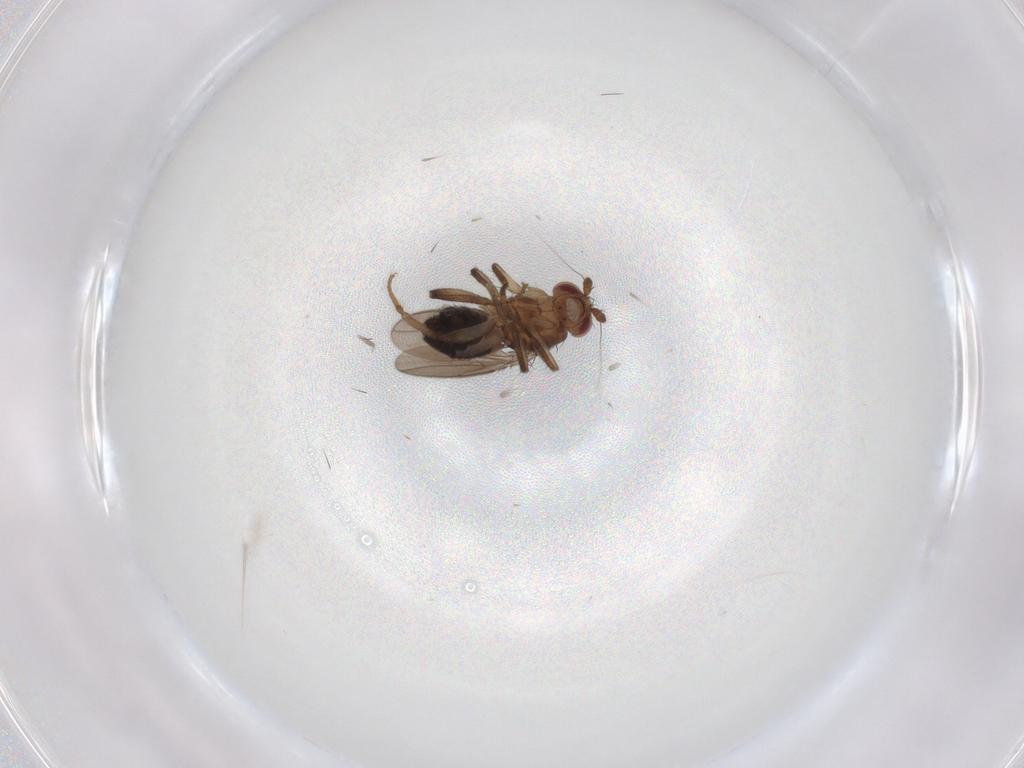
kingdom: Animalia
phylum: Arthropoda
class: Insecta
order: Diptera
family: Sphaeroceridae
